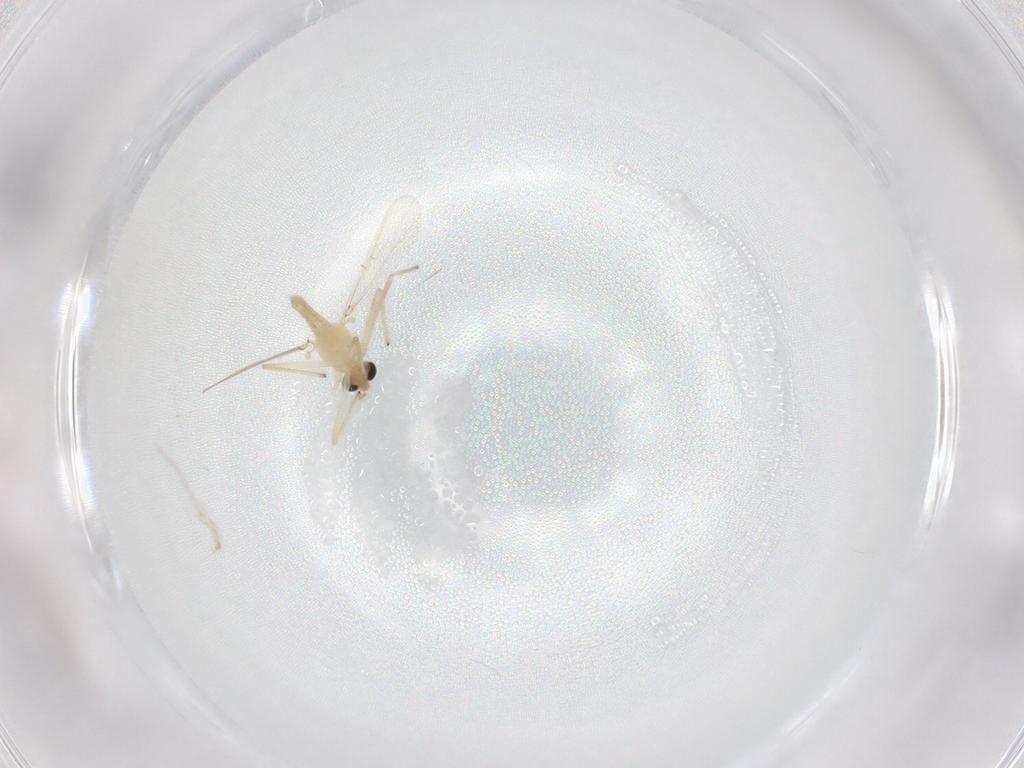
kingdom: Animalia
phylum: Arthropoda
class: Insecta
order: Diptera
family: Chironomidae
